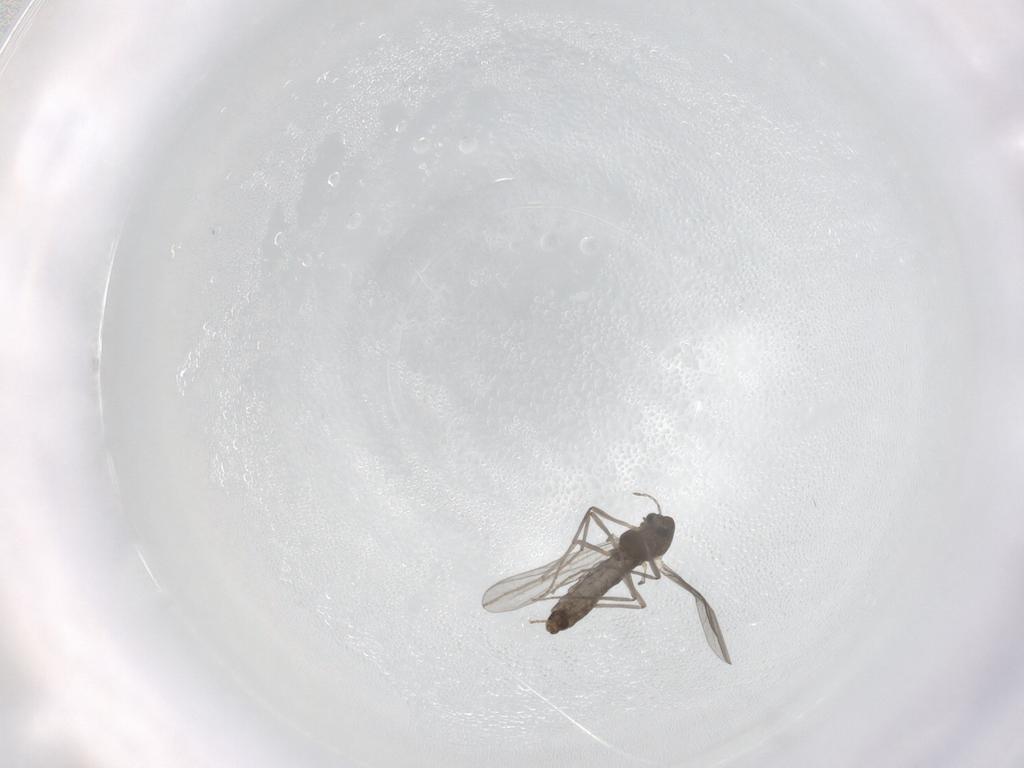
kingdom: Animalia
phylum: Arthropoda
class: Insecta
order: Diptera
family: Chironomidae
